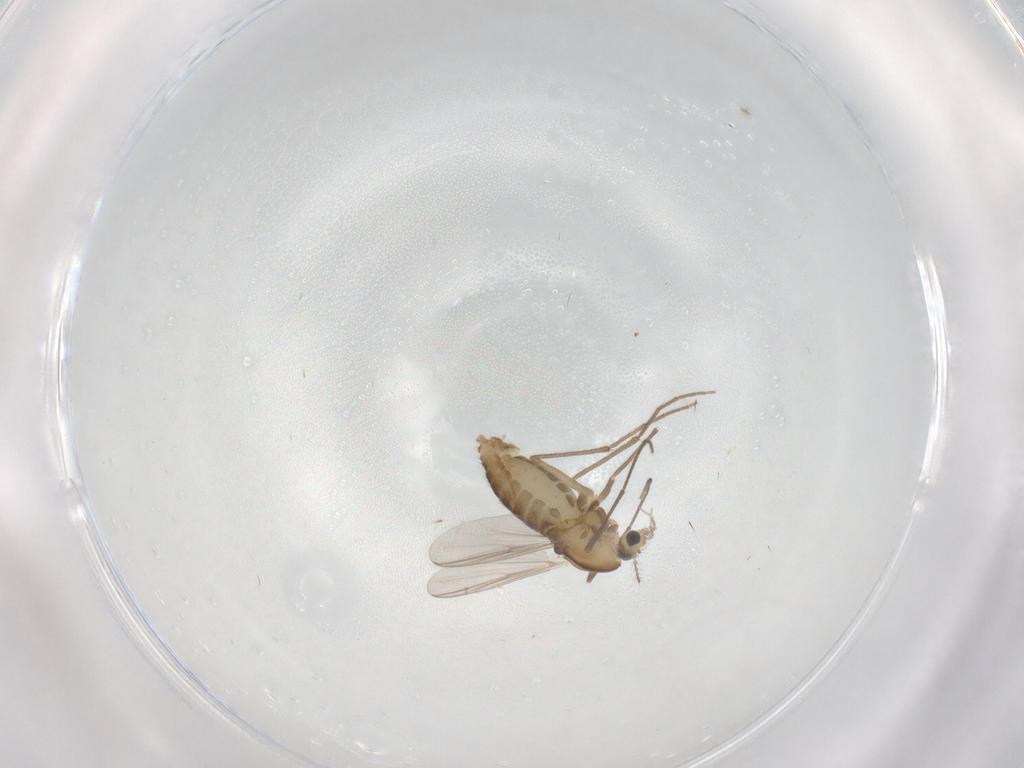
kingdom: Animalia
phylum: Arthropoda
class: Insecta
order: Diptera
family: Chironomidae
